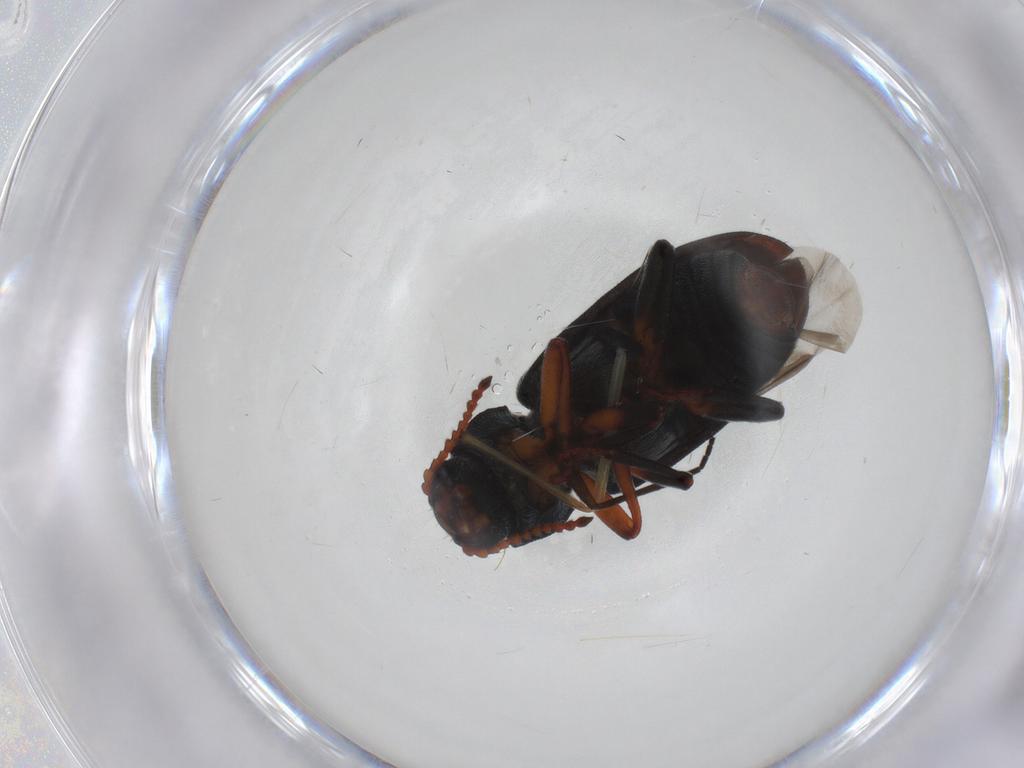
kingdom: Animalia
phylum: Arthropoda
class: Insecta
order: Coleoptera
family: Melyridae
